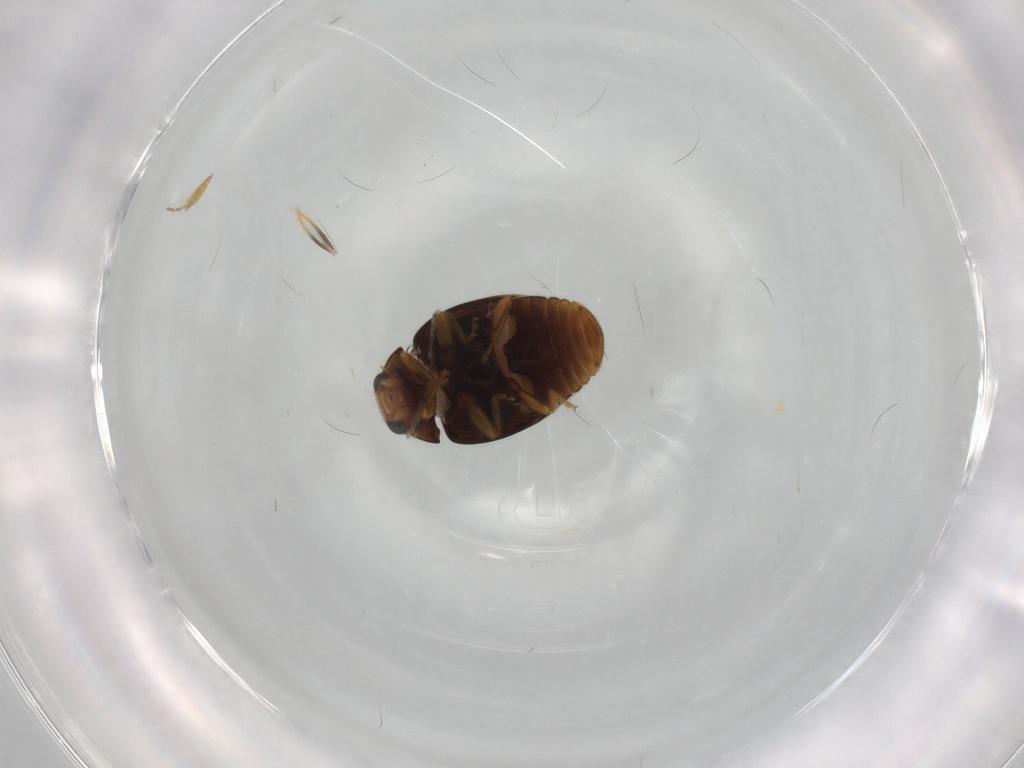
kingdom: Animalia
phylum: Arthropoda
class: Insecta
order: Coleoptera
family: Coccinellidae
